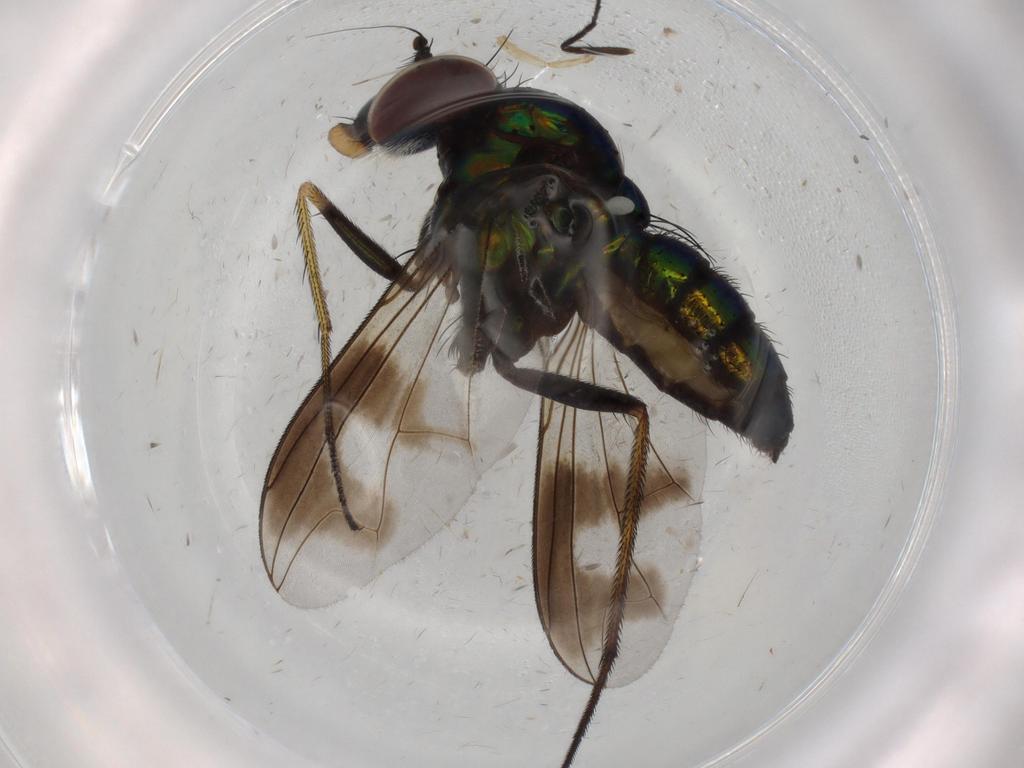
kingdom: Animalia
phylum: Arthropoda
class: Insecta
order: Diptera
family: Dolichopodidae
